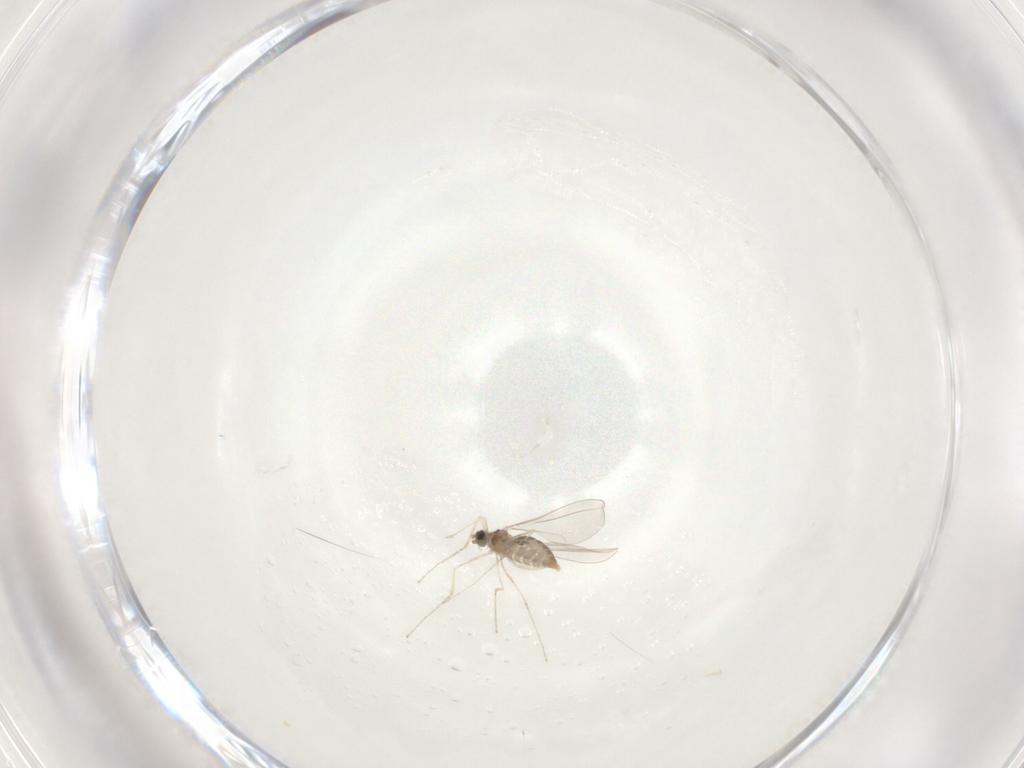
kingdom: Animalia
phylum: Arthropoda
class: Insecta
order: Diptera
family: Cecidomyiidae
